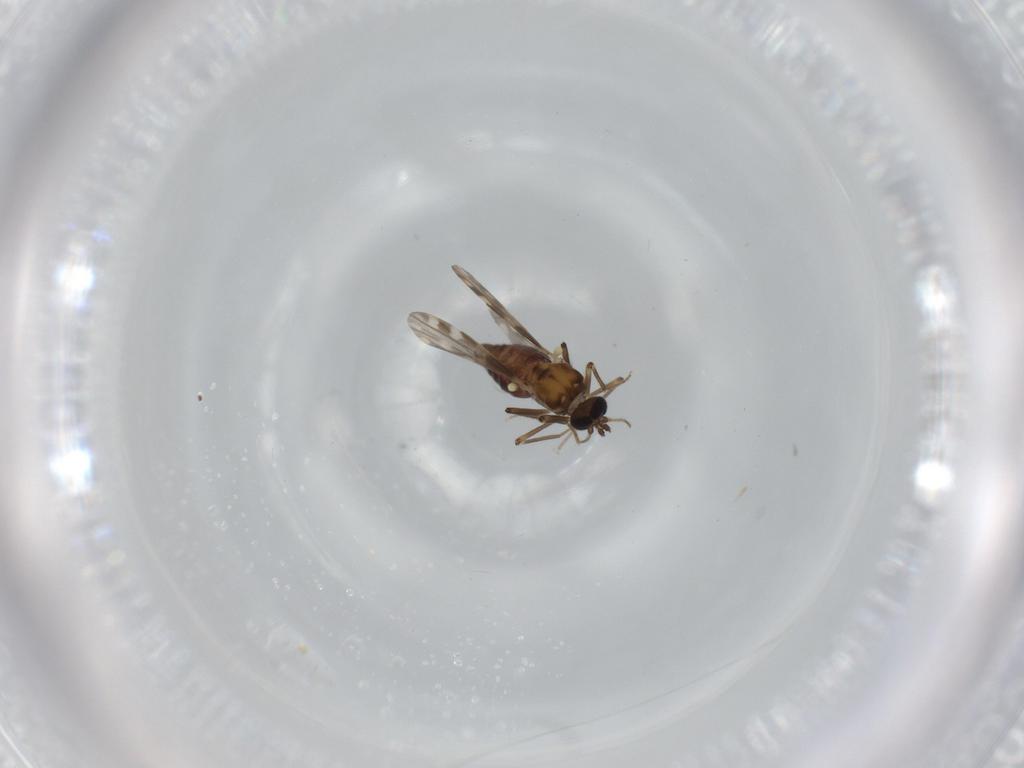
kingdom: Animalia
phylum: Arthropoda
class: Insecta
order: Diptera
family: Ceratopogonidae
